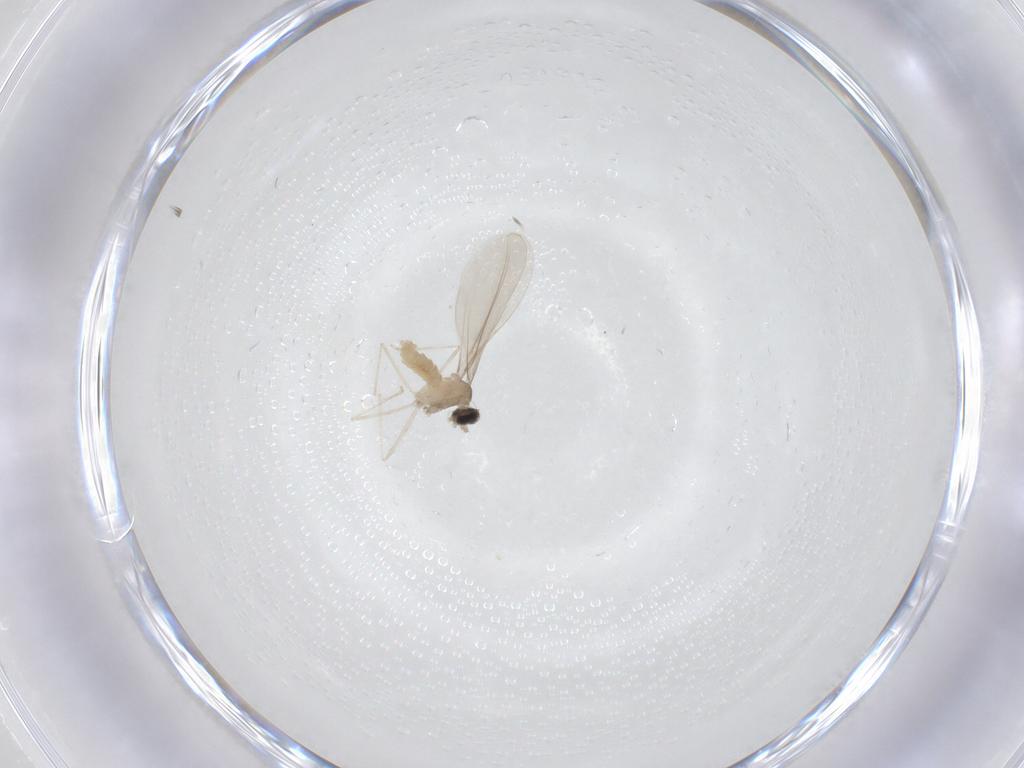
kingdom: Animalia
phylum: Arthropoda
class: Insecta
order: Diptera
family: Cecidomyiidae
